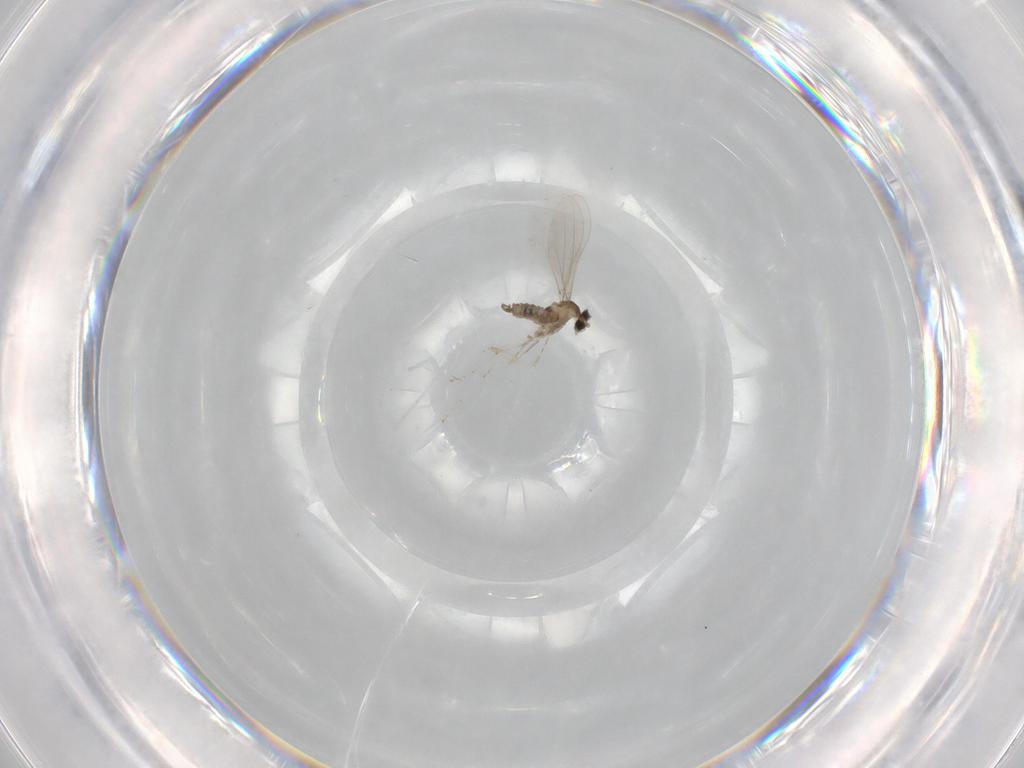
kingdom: Animalia
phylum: Arthropoda
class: Insecta
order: Diptera
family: Cecidomyiidae
